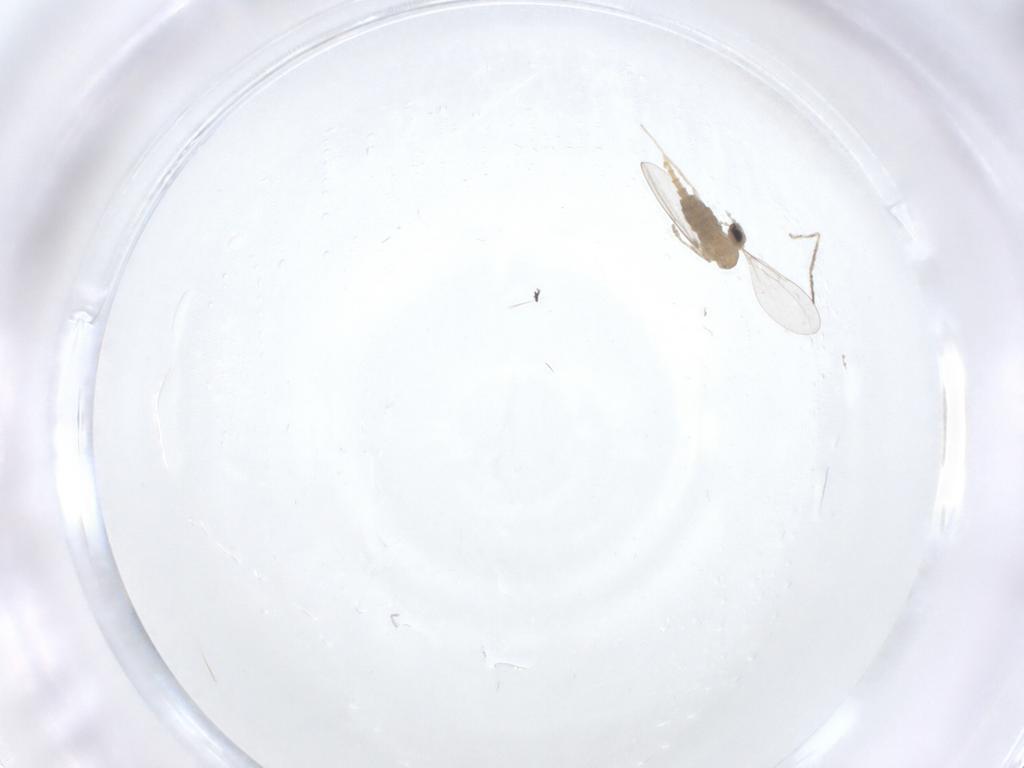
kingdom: Animalia
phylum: Arthropoda
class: Insecta
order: Diptera
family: Cecidomyiidae
